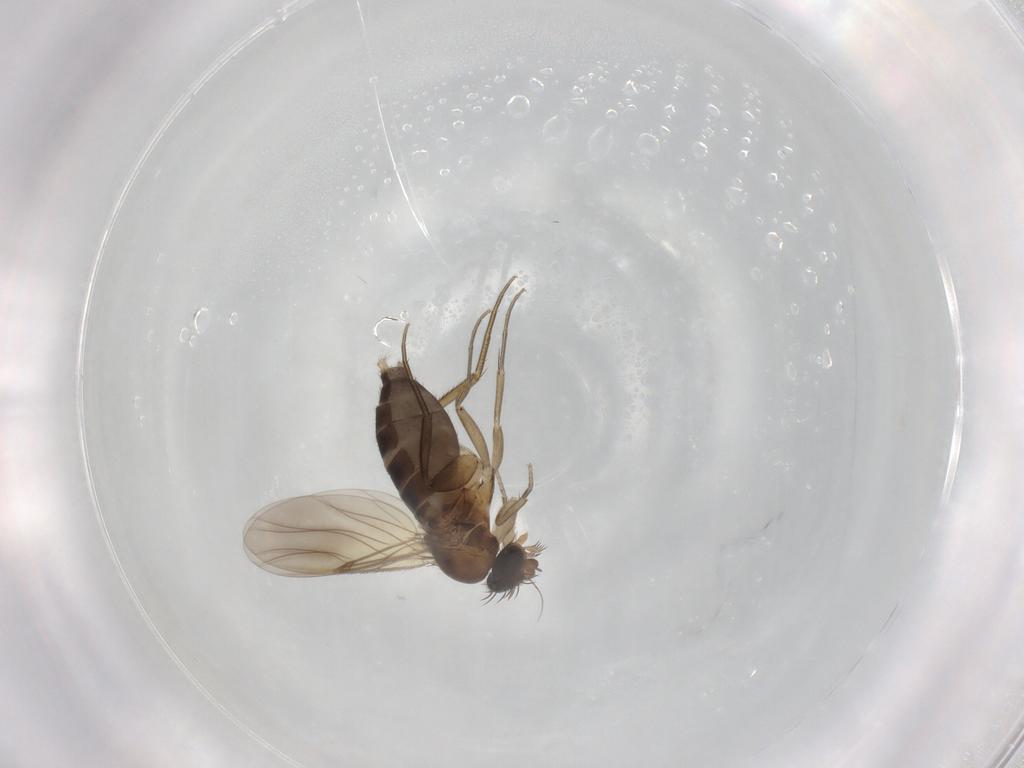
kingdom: Animalia
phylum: Arthropoda
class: Insecta
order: Diptera
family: Phoridae
